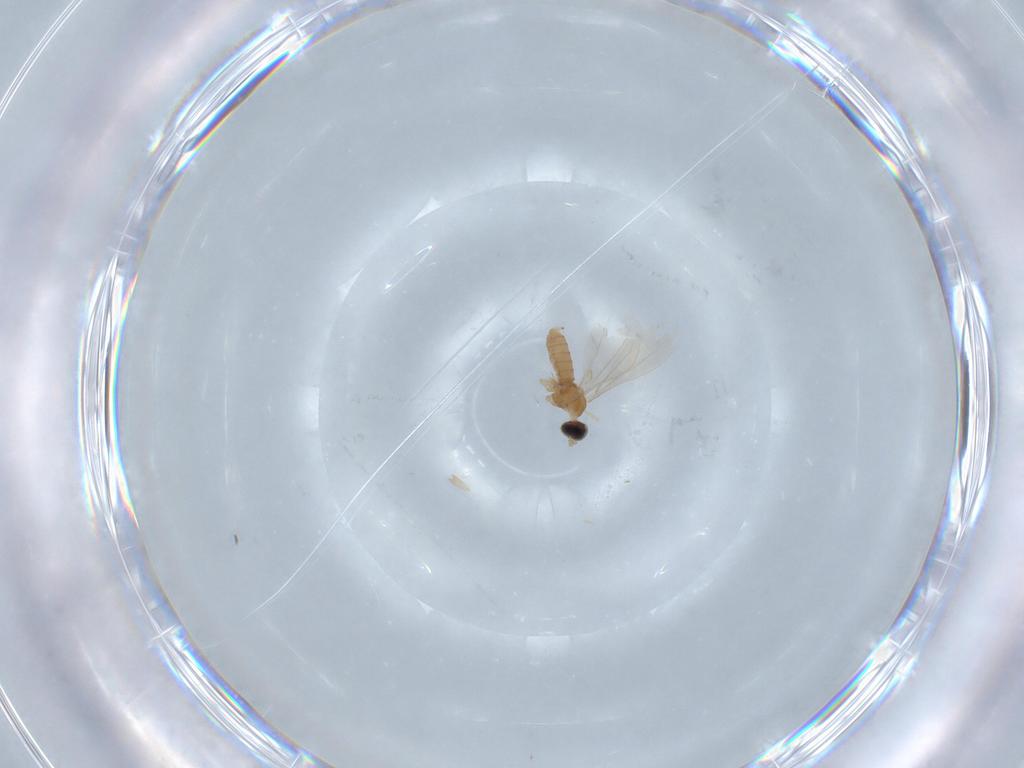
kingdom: Animalia
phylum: Arthropoda
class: Insecta
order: Diptera
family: Cecidomyiidae
